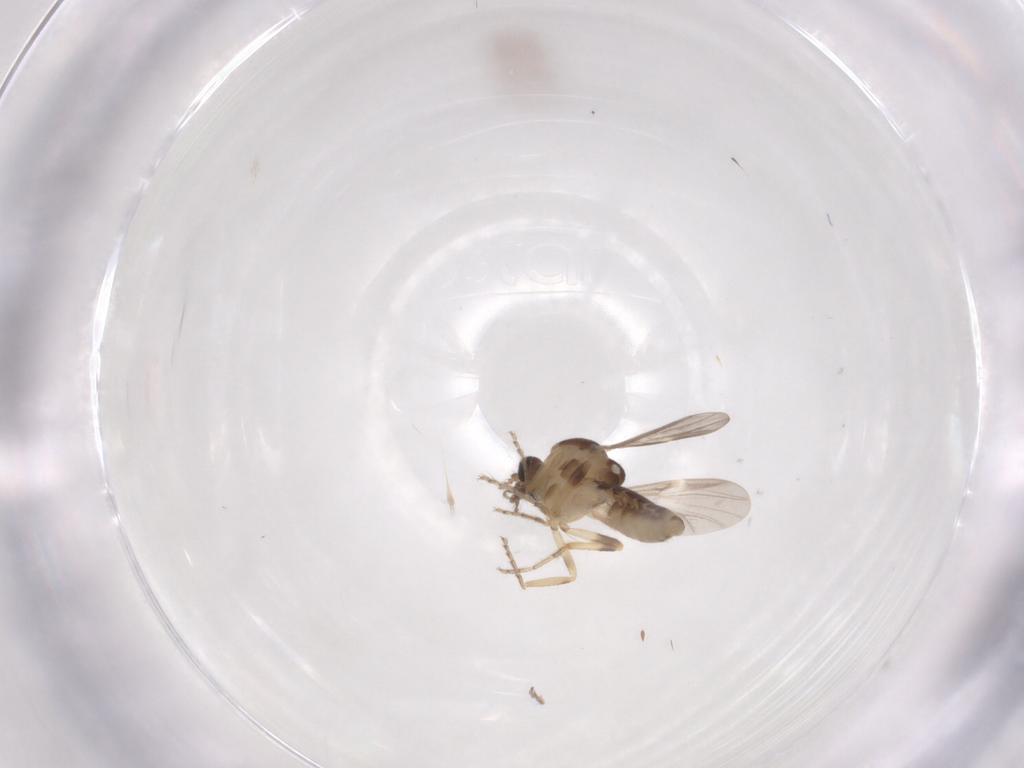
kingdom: Animalia
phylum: Arthropoda
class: Insecta
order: Diptera
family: Ceratopogonidae
